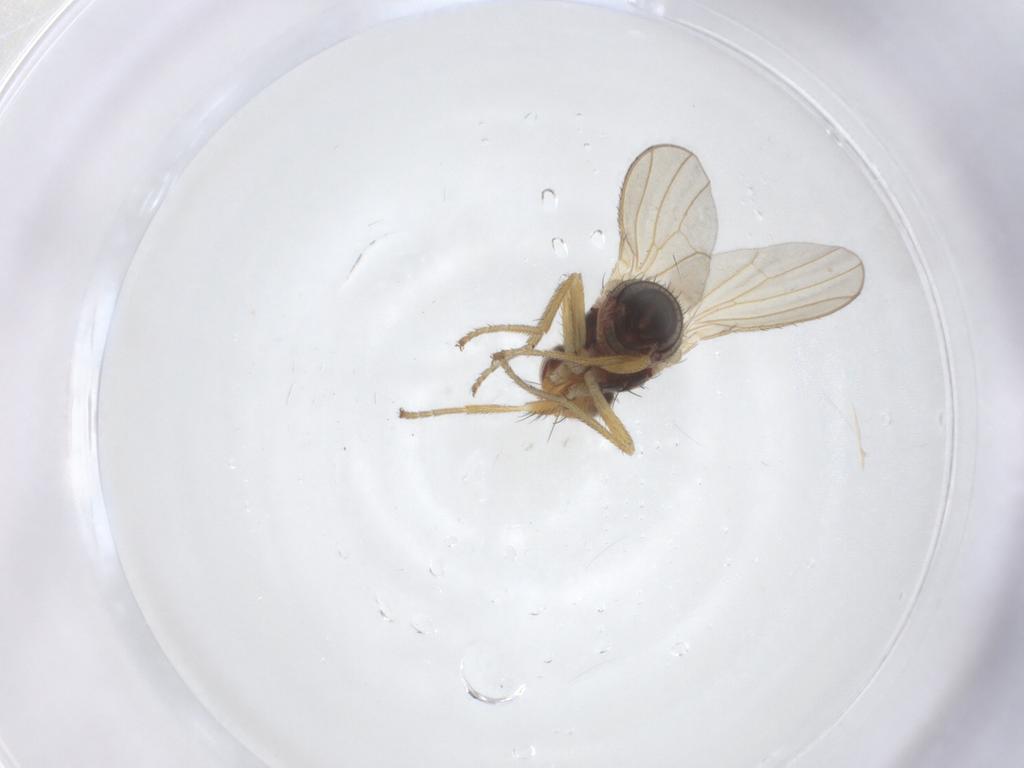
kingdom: Animalia
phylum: Arthropoda
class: Insecta
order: Diptera
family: Heleomyzidae
